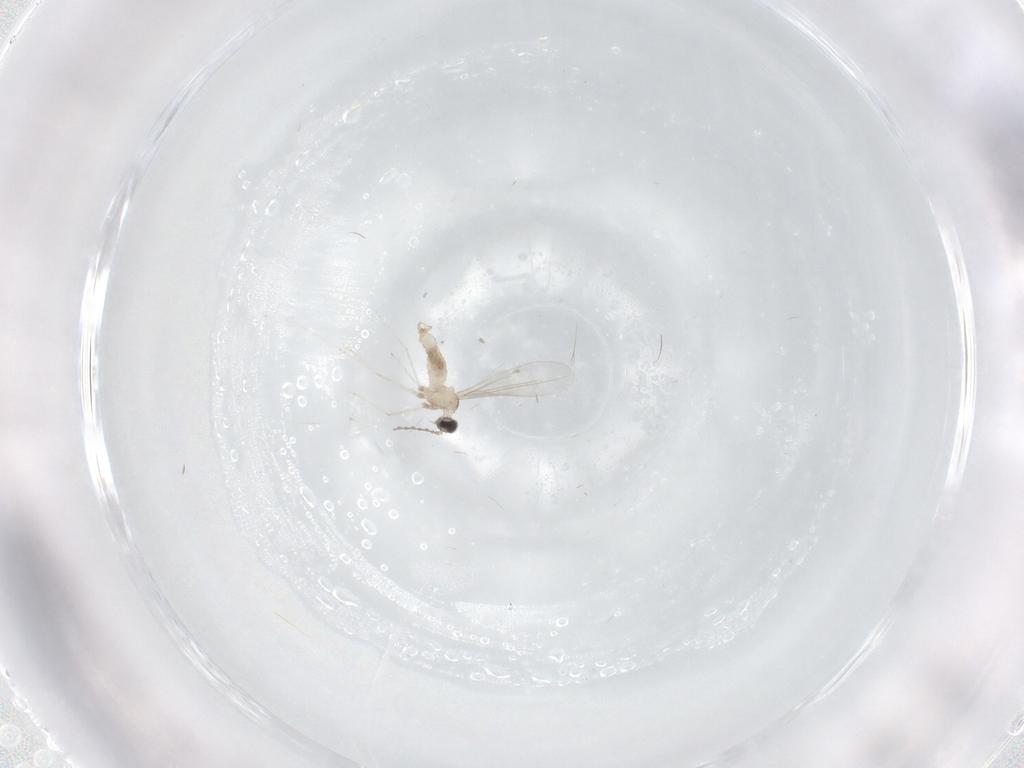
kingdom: Animalia
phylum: Arthropoda
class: Insecta
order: Diptera
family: Cecidomyiidae
